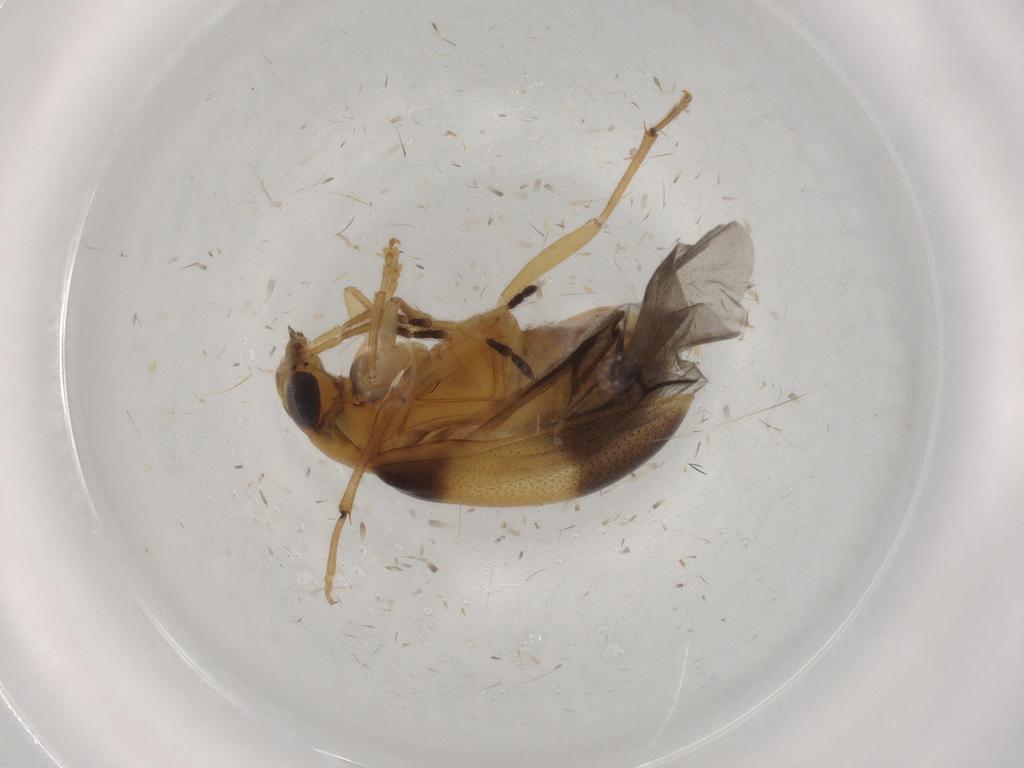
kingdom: Animalia
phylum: Arthropoda
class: Insecta
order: Coleoptera
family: Chrysomelidae
